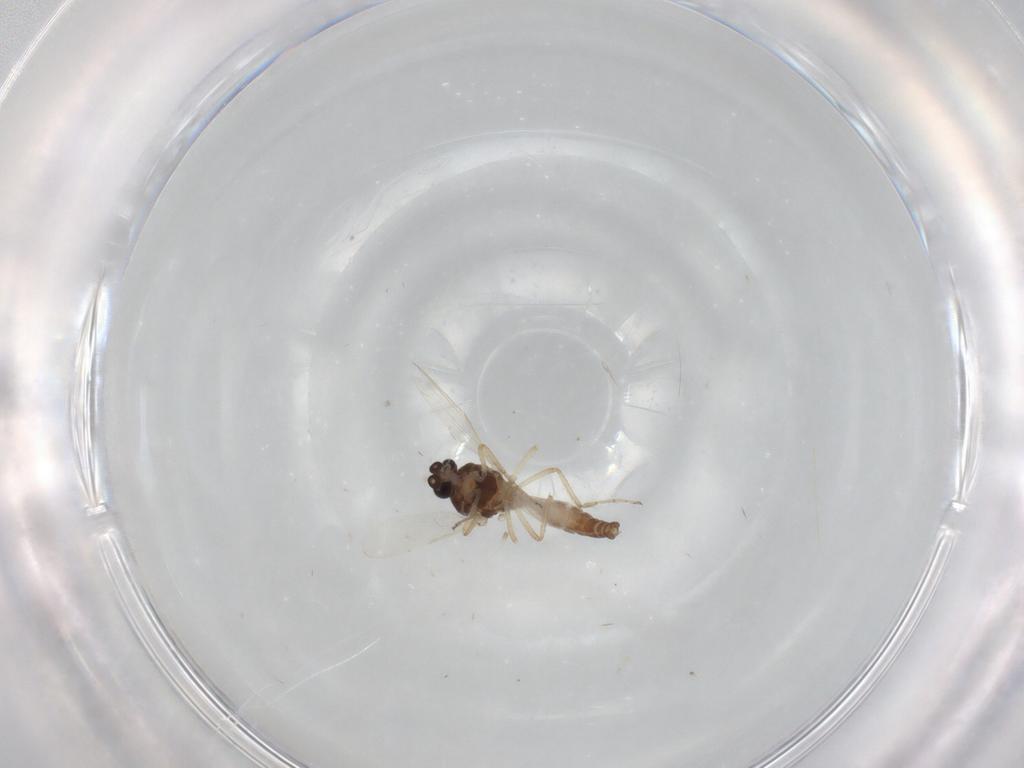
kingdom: Animalia
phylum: Arthropoda
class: Insecta
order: Diptera
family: Ceratopogonidae
